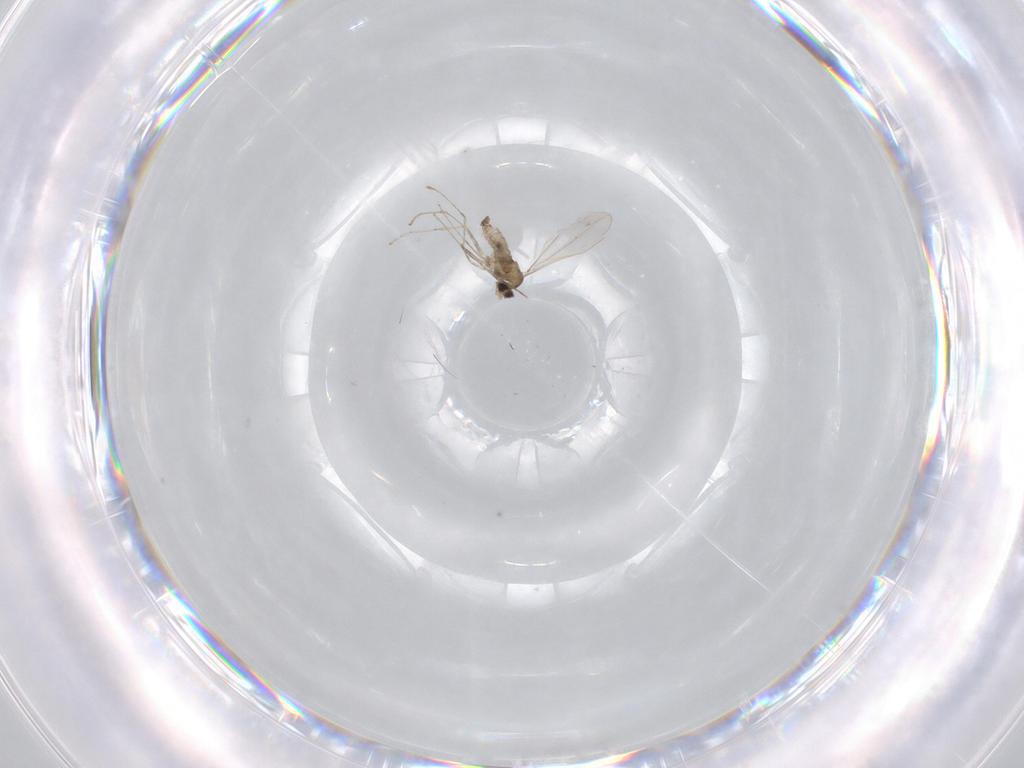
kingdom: Animalia
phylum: Arthropoda
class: Insecta
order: Diptera
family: Cecidomyiidae
